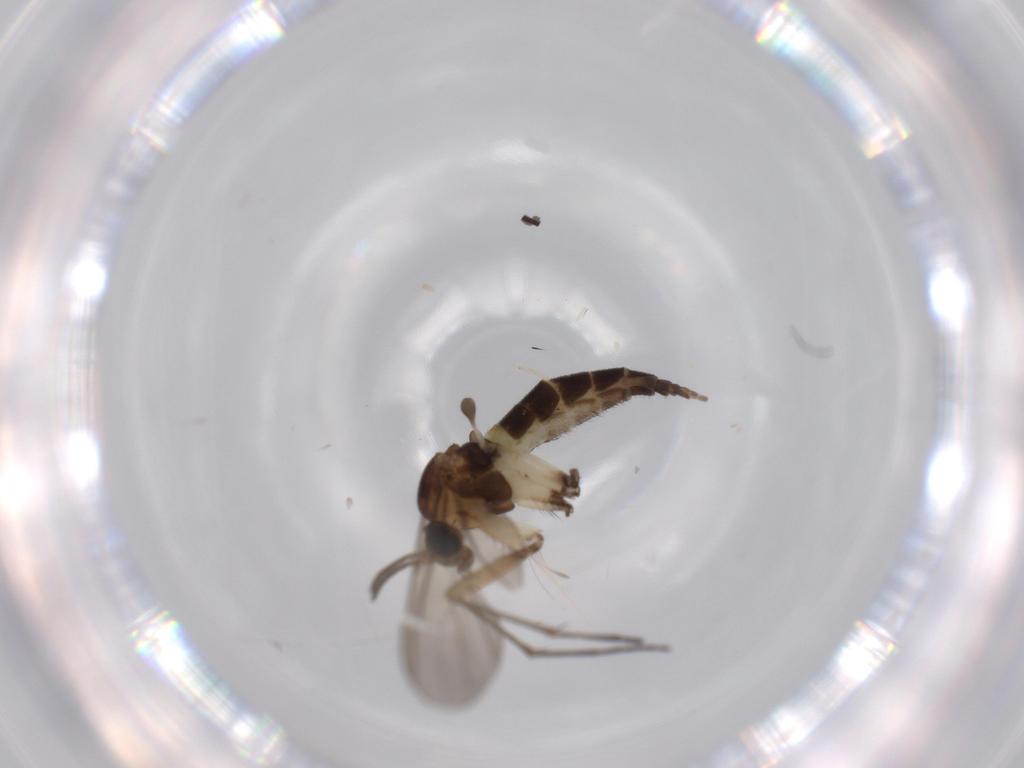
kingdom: Animalia
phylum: Arthropoda
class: Insecta
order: Diptera
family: Sciaridae
